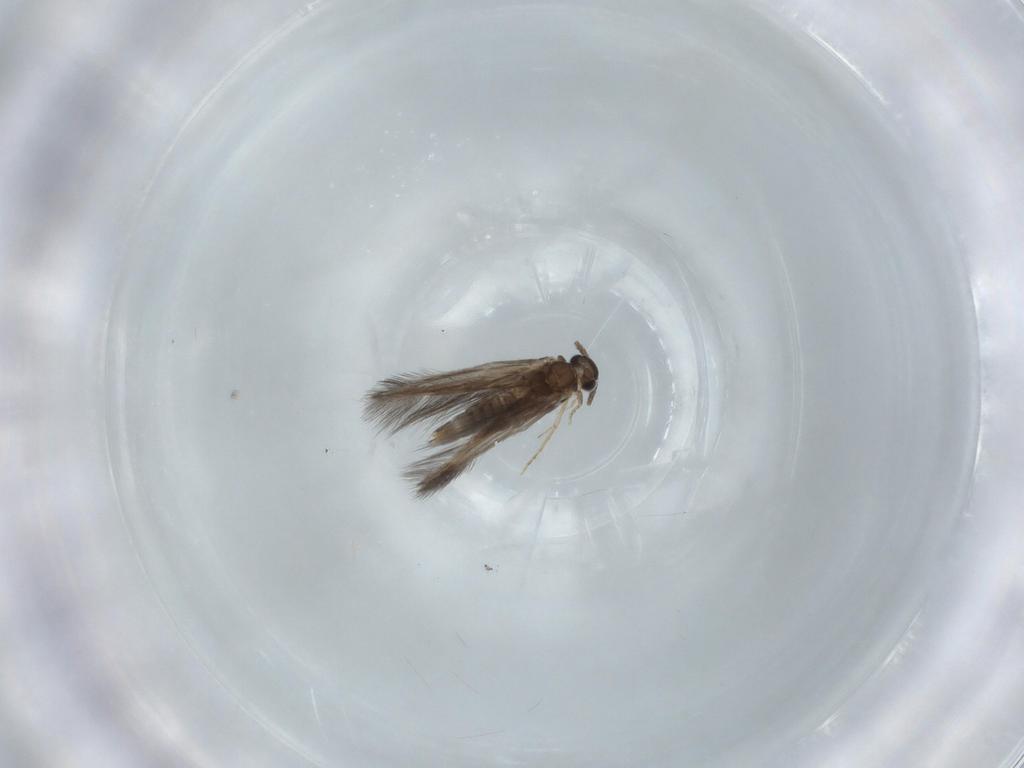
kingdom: Animalia
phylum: Arthropoda
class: Insecta
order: Trichoptera
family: Hydroptilidae
